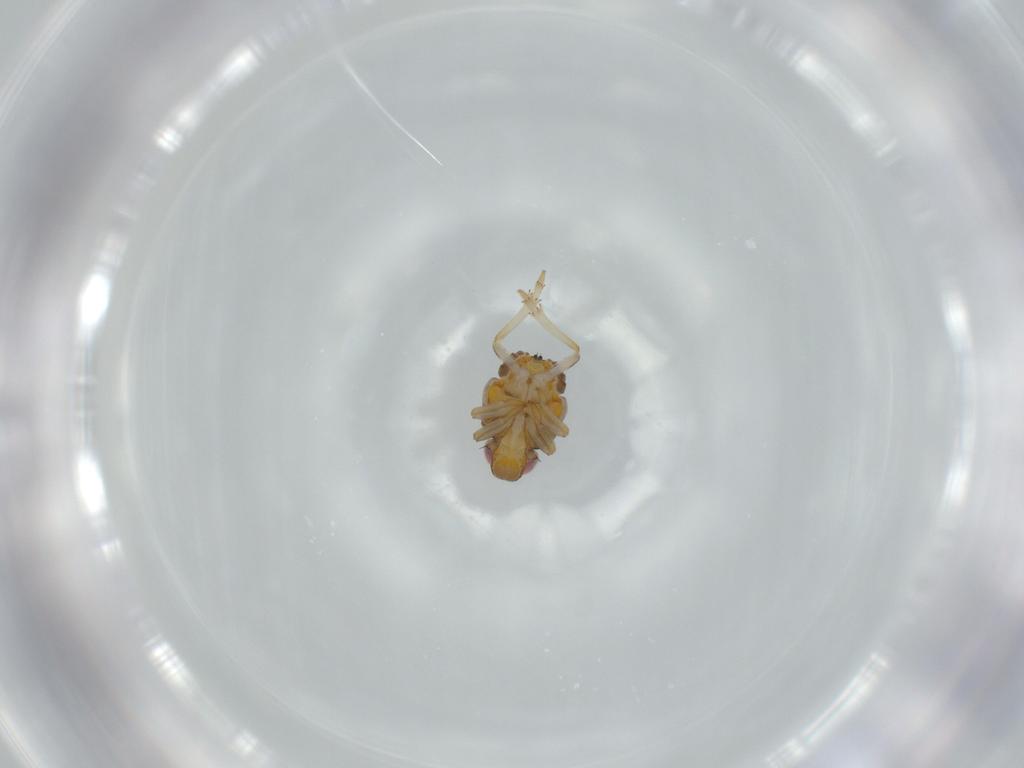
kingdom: Animalia
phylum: Arthropoda
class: Insecta
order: Hemiptera
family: Issidae
